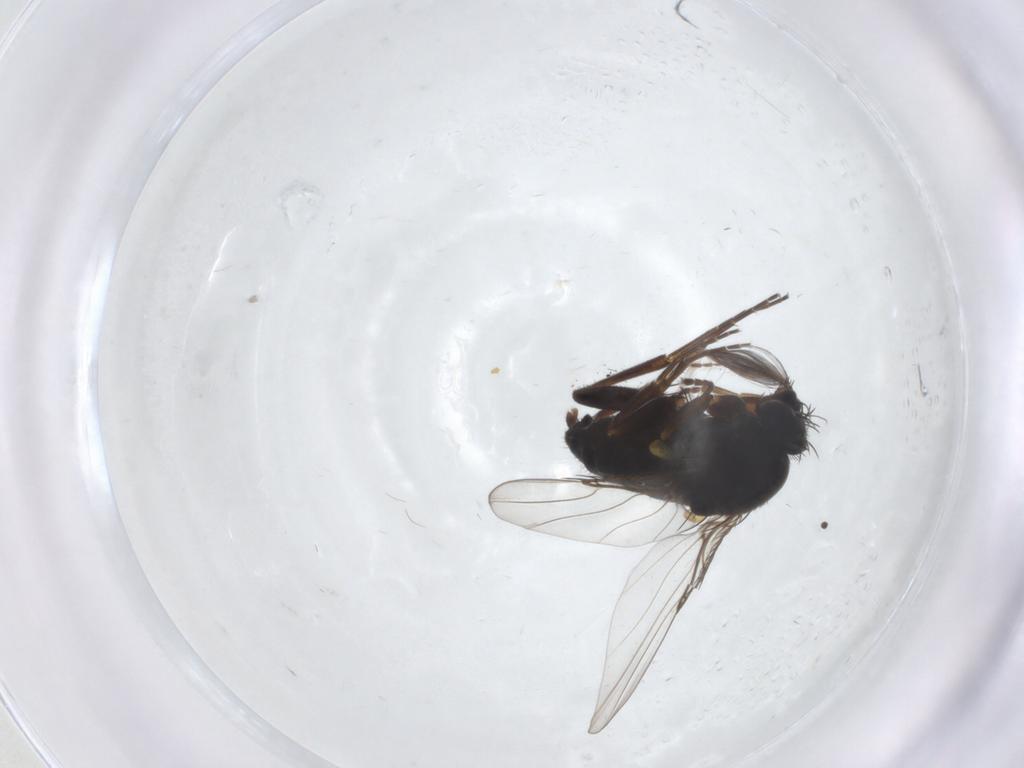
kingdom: Animalia
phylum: Arthropoda
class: Insecta
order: Diptera
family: Phoridae
